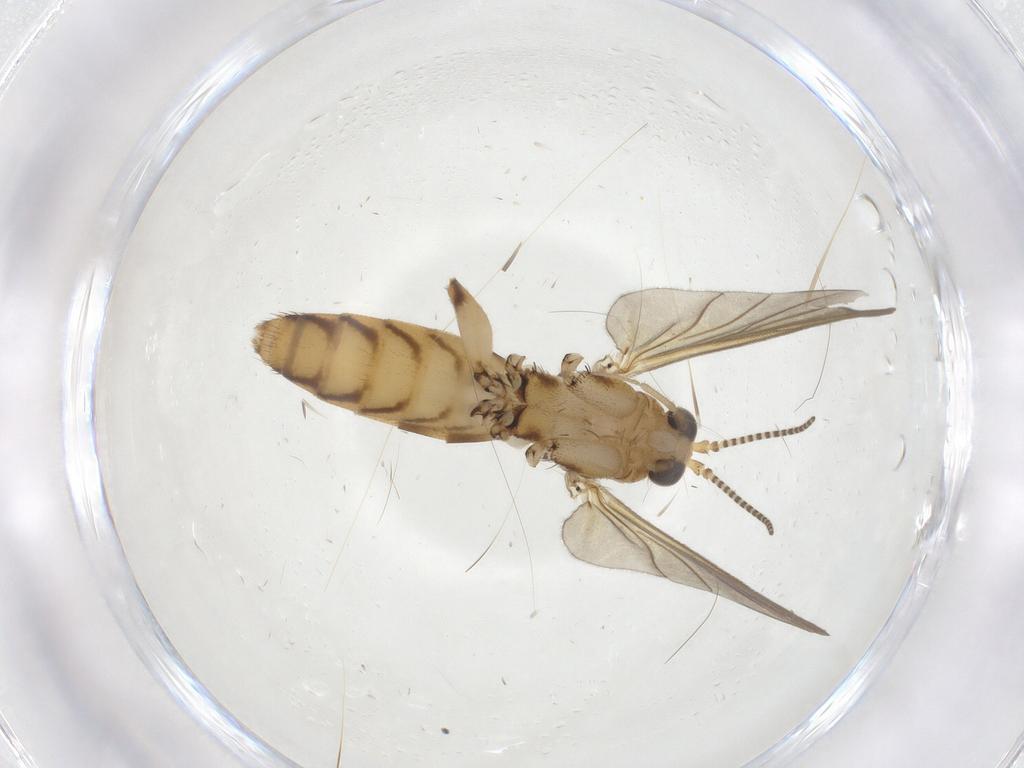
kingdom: Animalia
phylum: Arthropoda
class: Insecta
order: Diptera
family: Mycetophilidae
